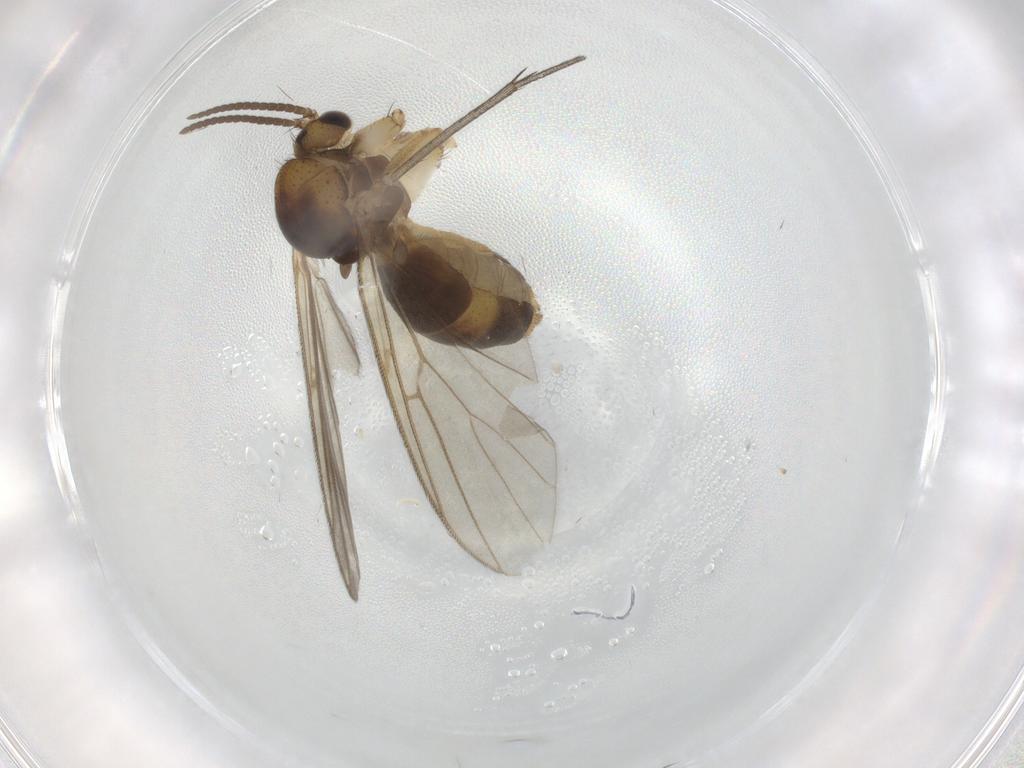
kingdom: Animalia
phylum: Arthropoda
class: Insecta
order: Diptera
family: Mycetophilidae
